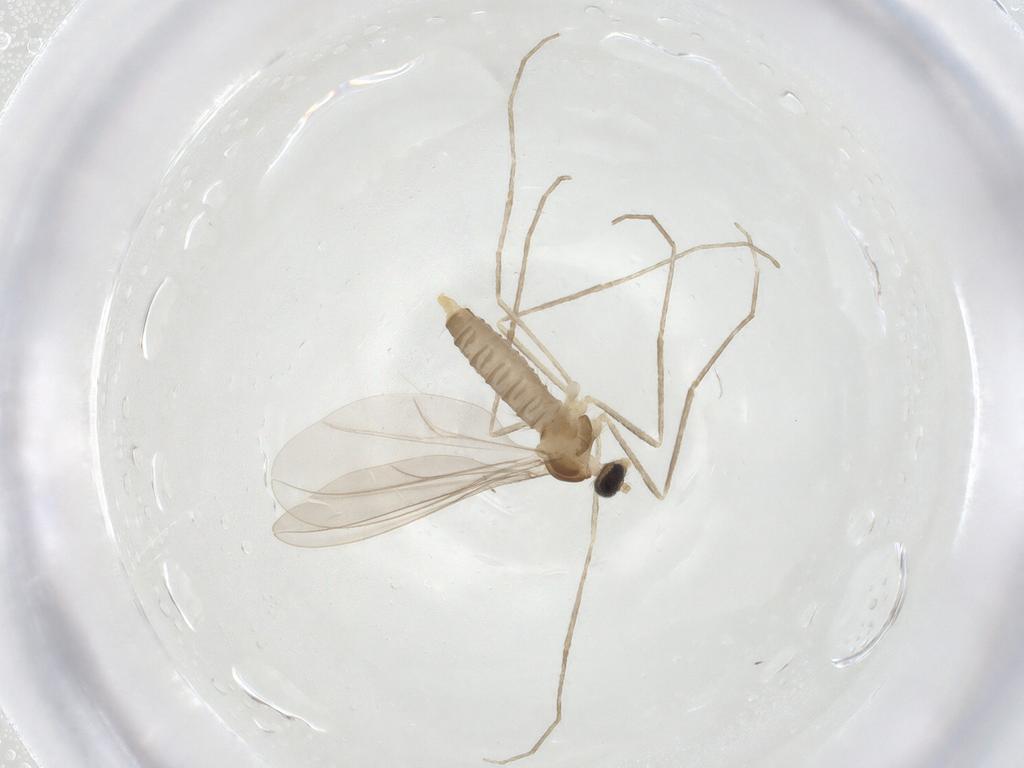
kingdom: Animalia
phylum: Arthropoda
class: Insecta
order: Diptera
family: Cecidomyiidae
